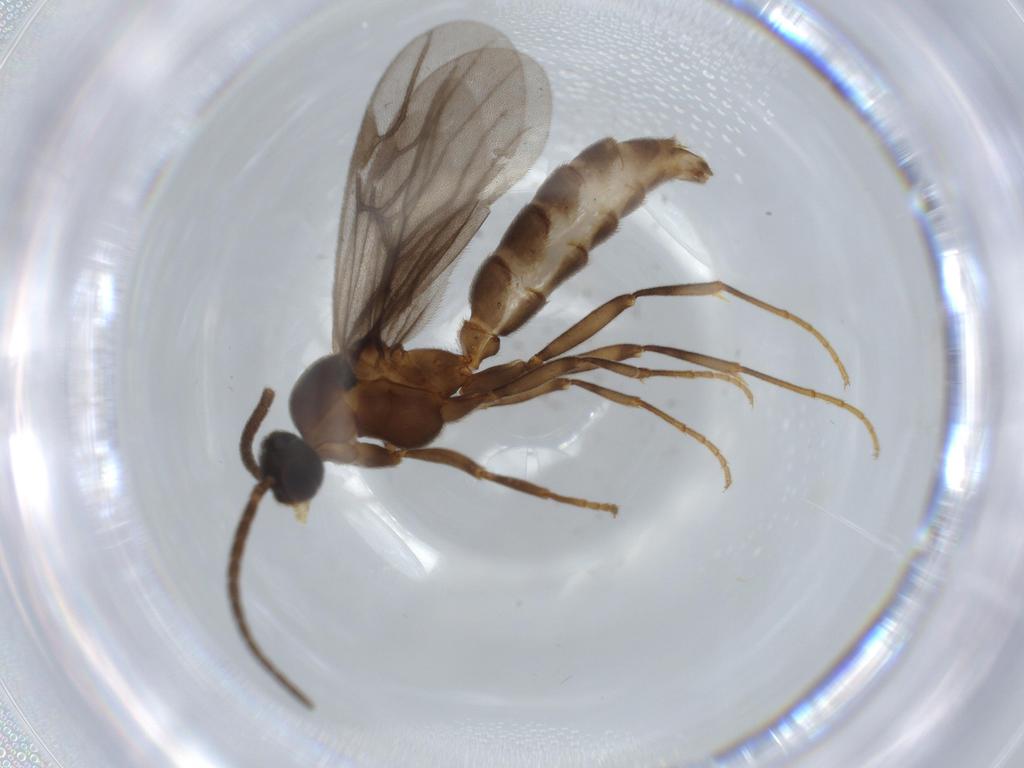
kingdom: Animalia
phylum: Arthropoda
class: Insecta
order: Hymenoptera
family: Formicidae
